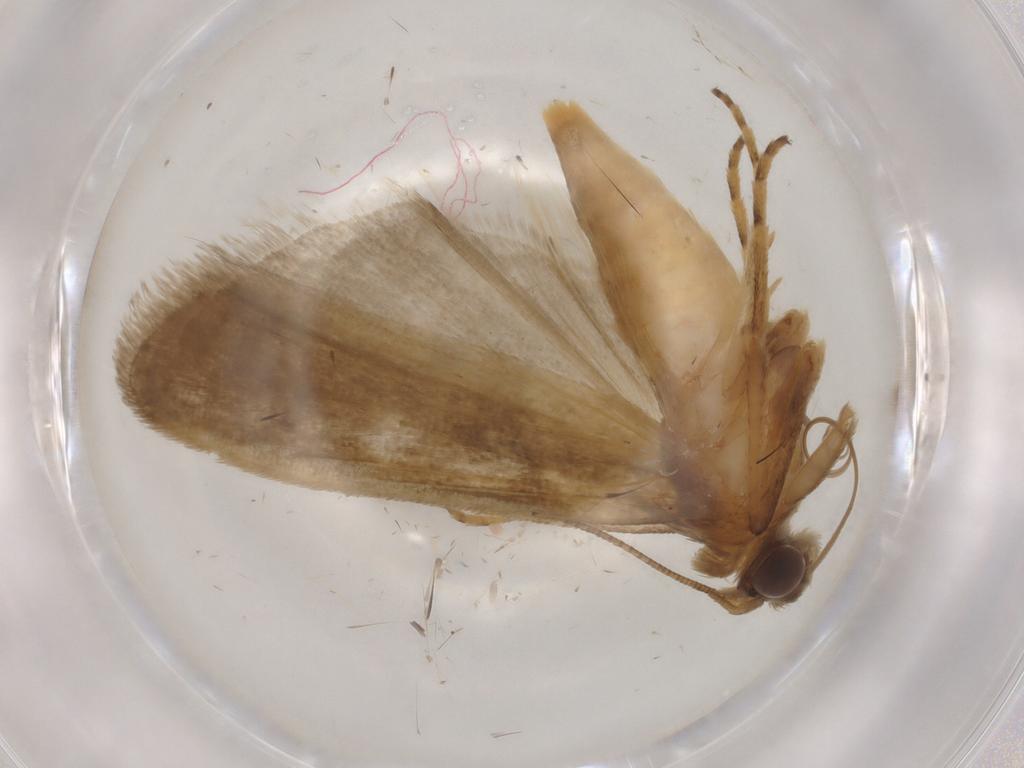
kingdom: Animalia
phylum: Arthropoda
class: Insecta
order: Lepidoptera
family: Noctuidae
